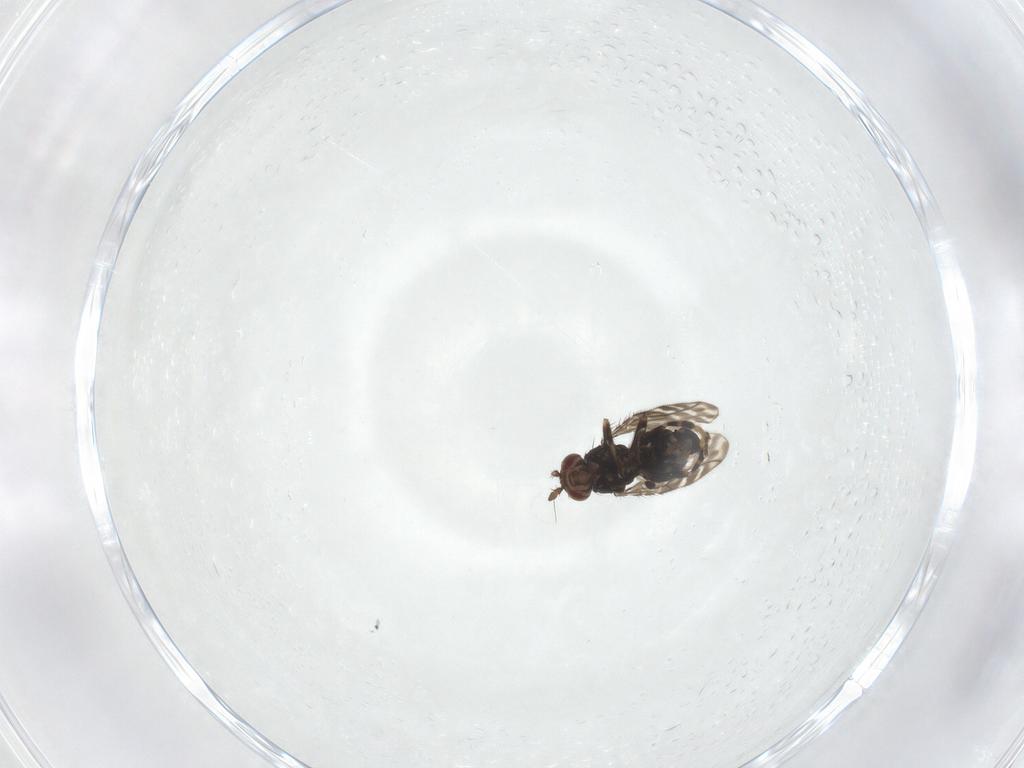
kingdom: Animalia
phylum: Arthropoda
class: Insecta
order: Diptera
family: Sphaeroceridae
